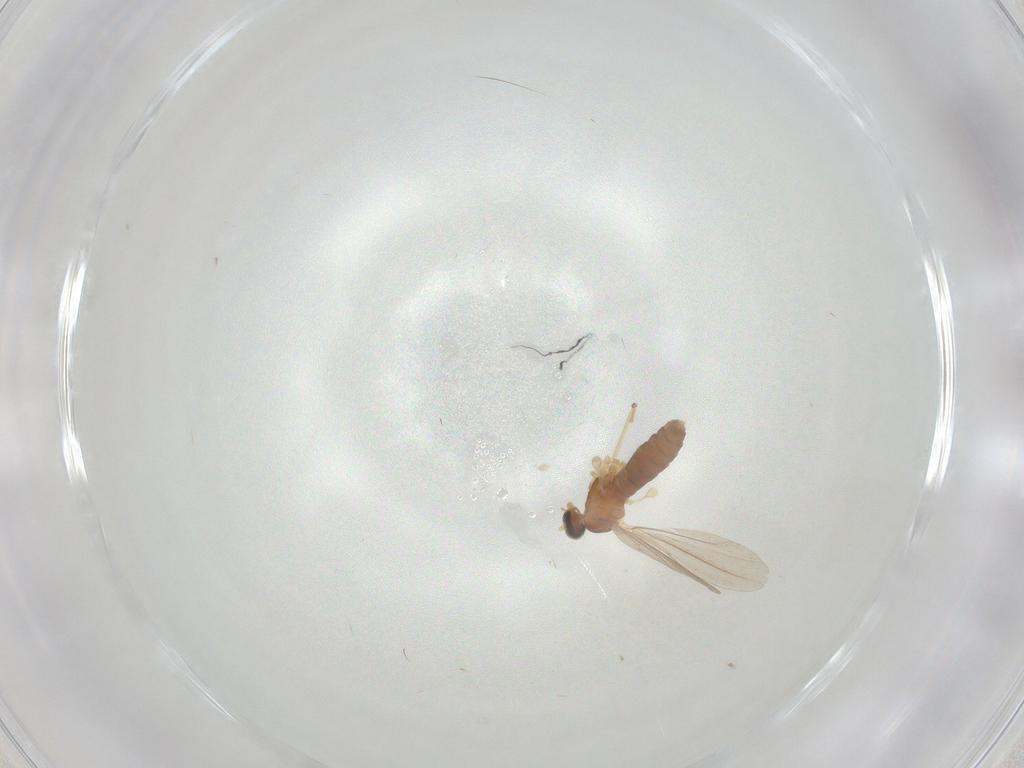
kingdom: Animalia
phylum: Arthropoda
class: Insecta
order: Diptera
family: Cecidomyiidae
